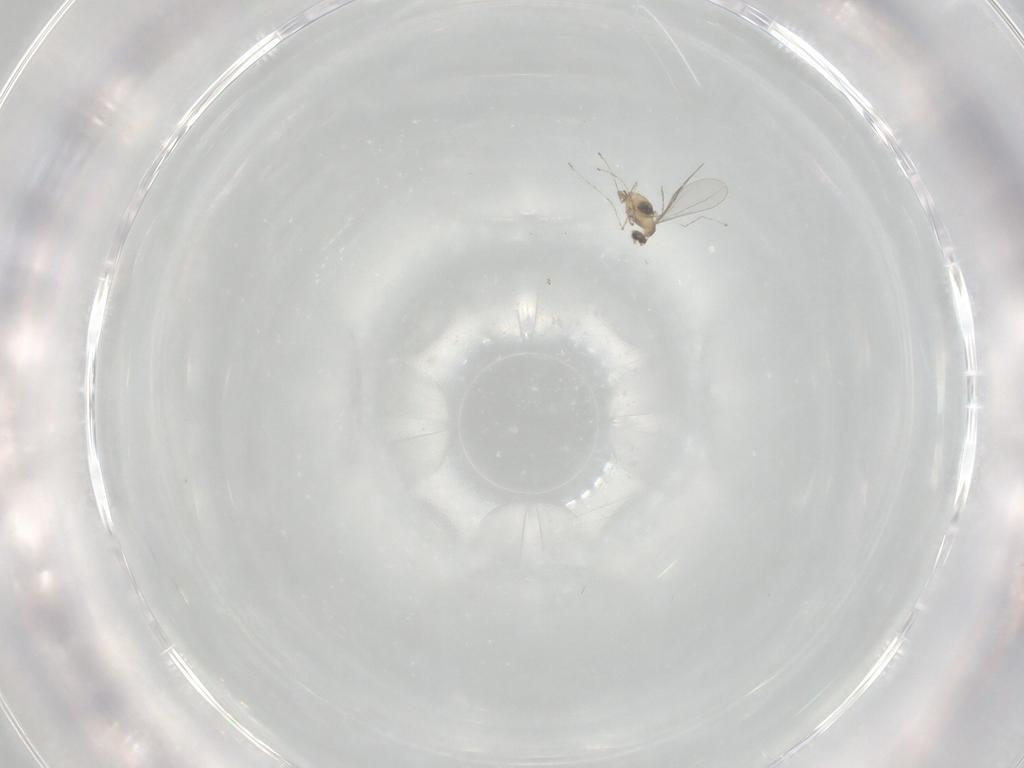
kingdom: Animalia
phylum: Arthropoda
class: Insecta
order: Diptera
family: Cecidomyiidae
